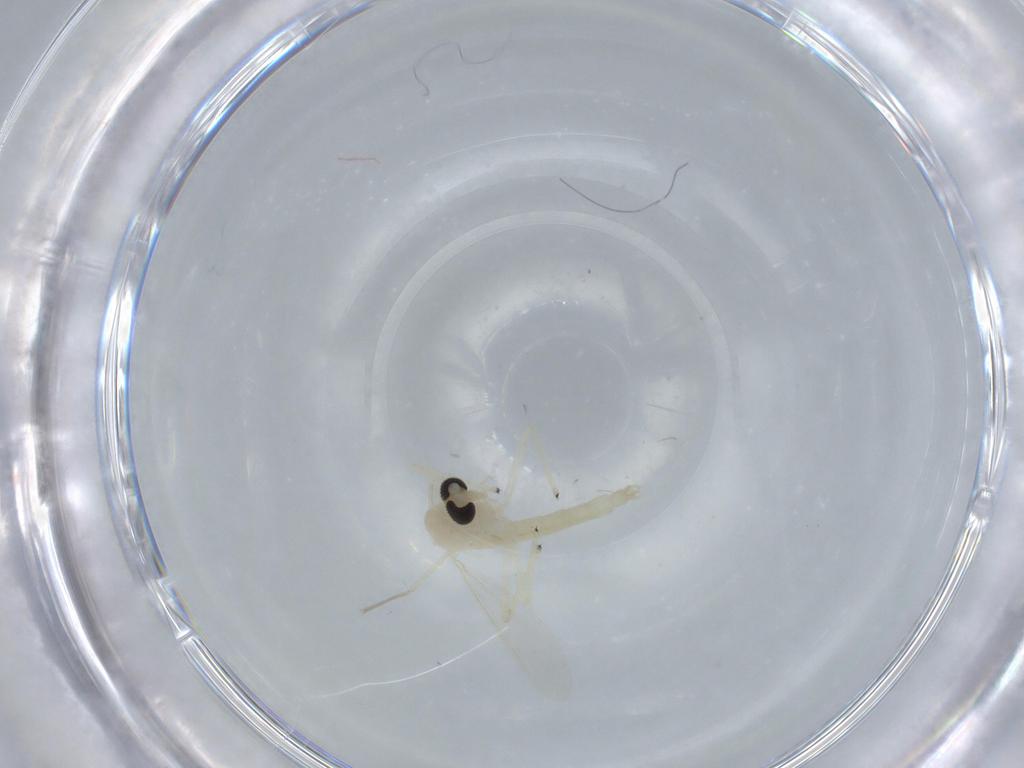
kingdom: Animalia
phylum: Arthropoda
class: Insecta
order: Diptera
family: Chironomidae
